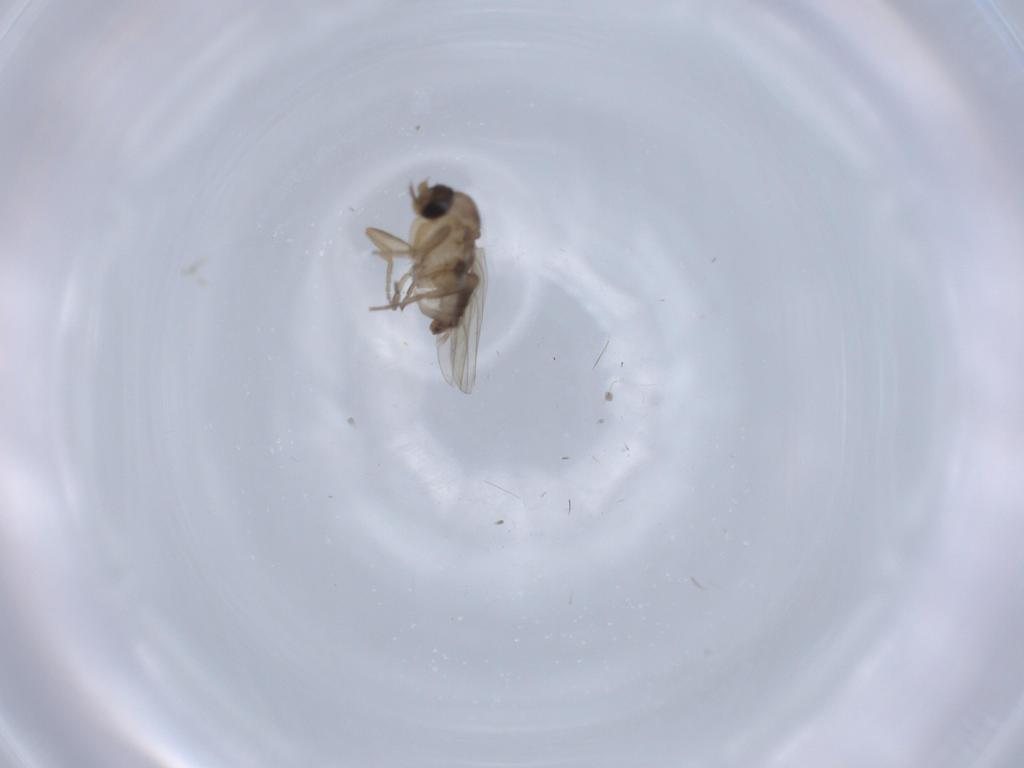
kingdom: Animalia
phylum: Arthropoda
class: Insecta
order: Diptera
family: Phoridae
